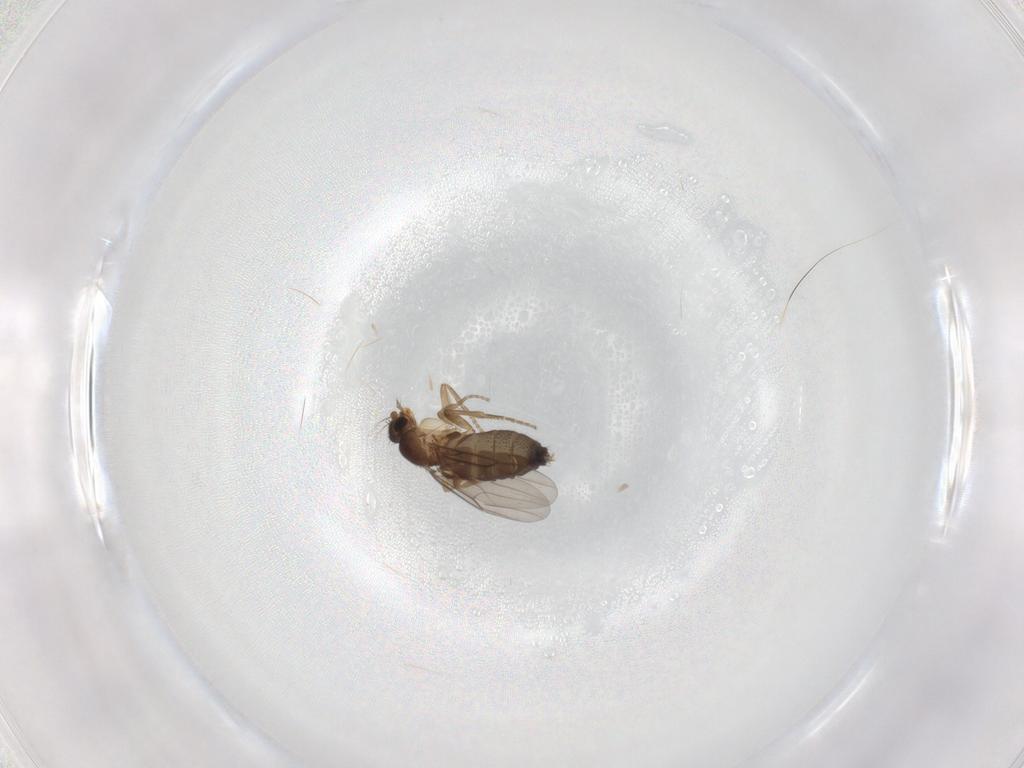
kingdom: Animalia
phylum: Arthropoda
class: Insecta
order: Diptera
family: Phoridae
